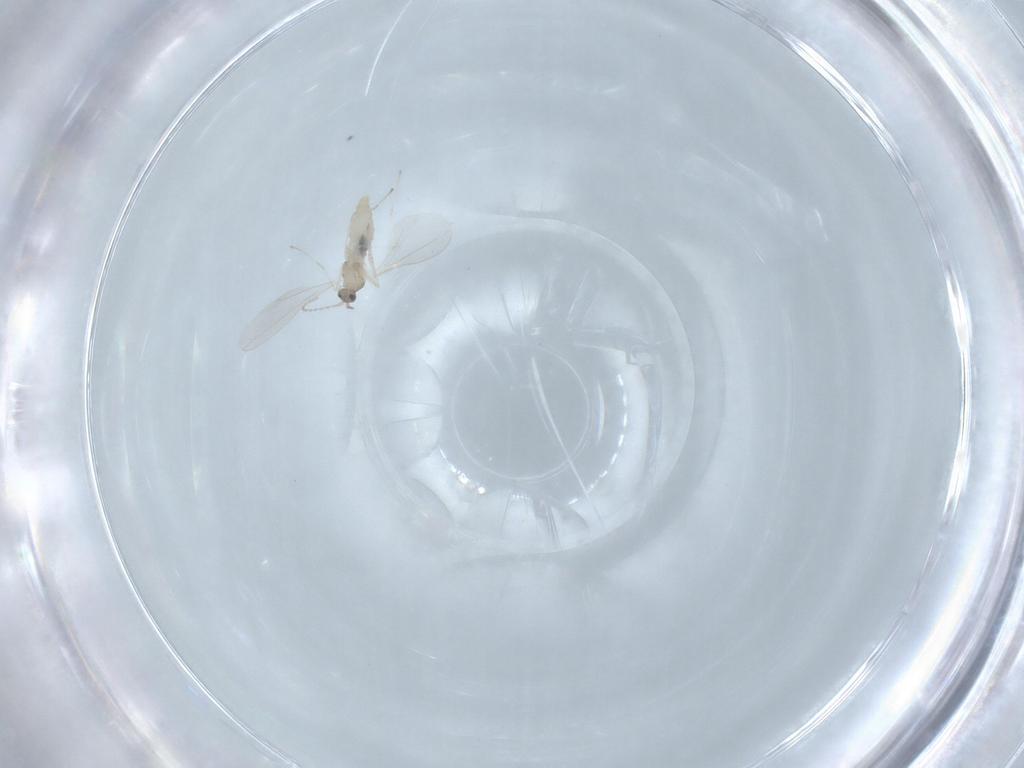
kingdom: Animalia
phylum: Arthropoda
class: Insecta
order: Diptera
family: Cecidomyiidae
